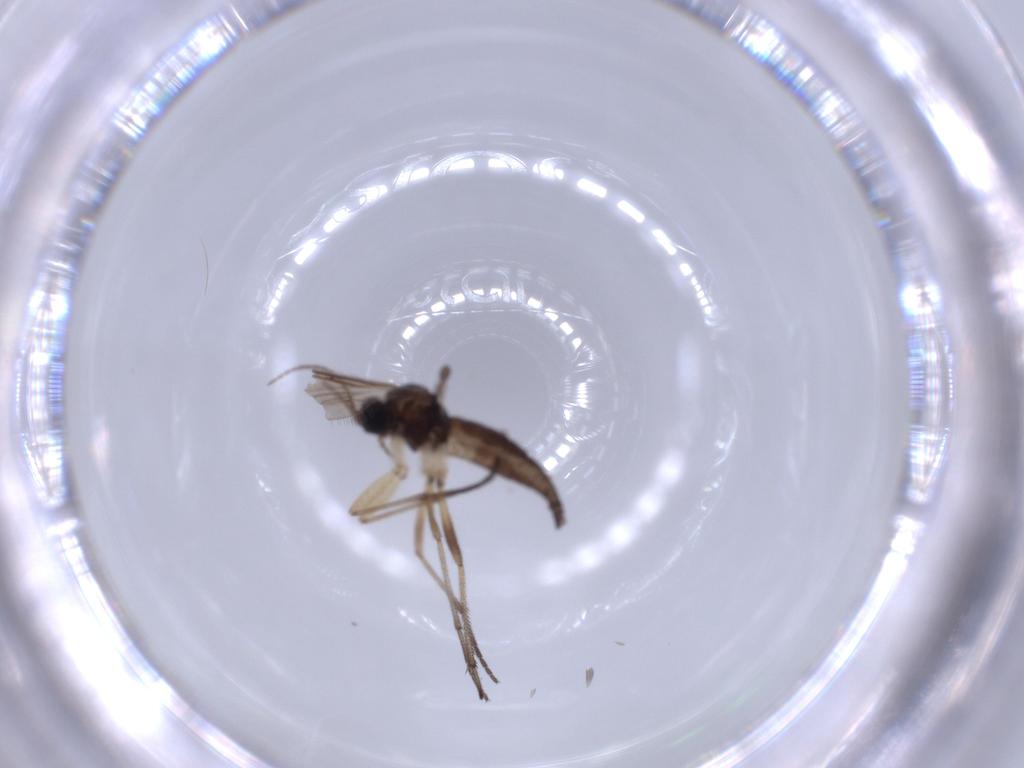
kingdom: Animalia
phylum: Arthropoda
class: Insecta
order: Diptera
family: Sciaridae
